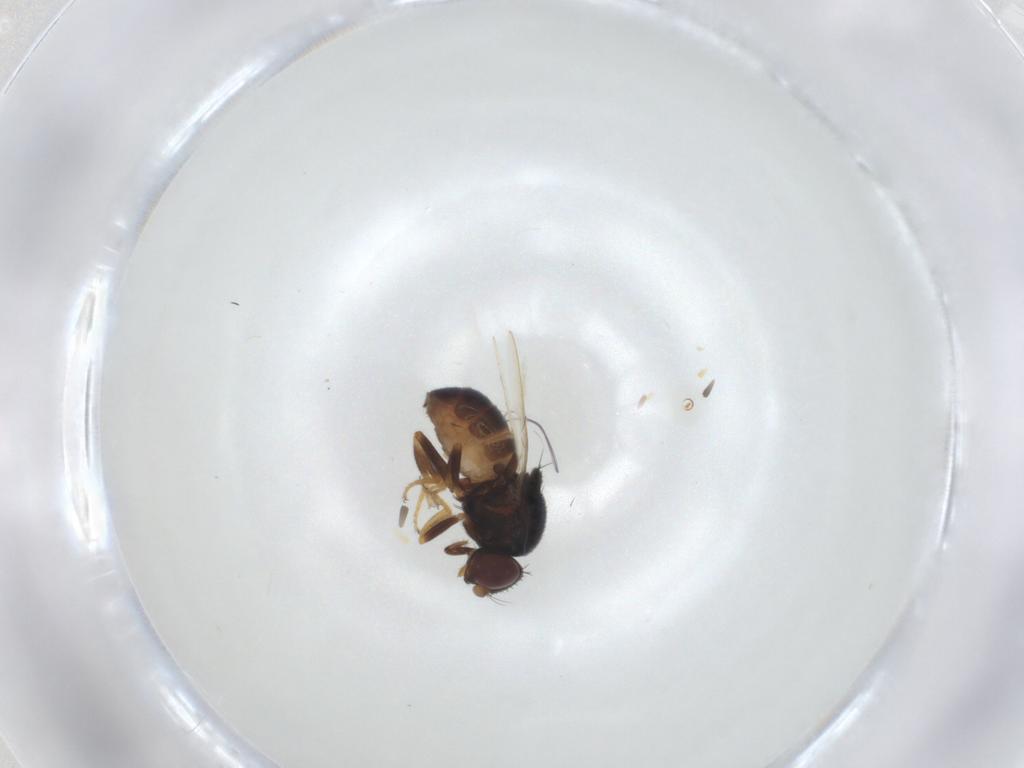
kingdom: Animalia
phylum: Arthropoda
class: Insecta
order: Diptera
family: Chloropidae
